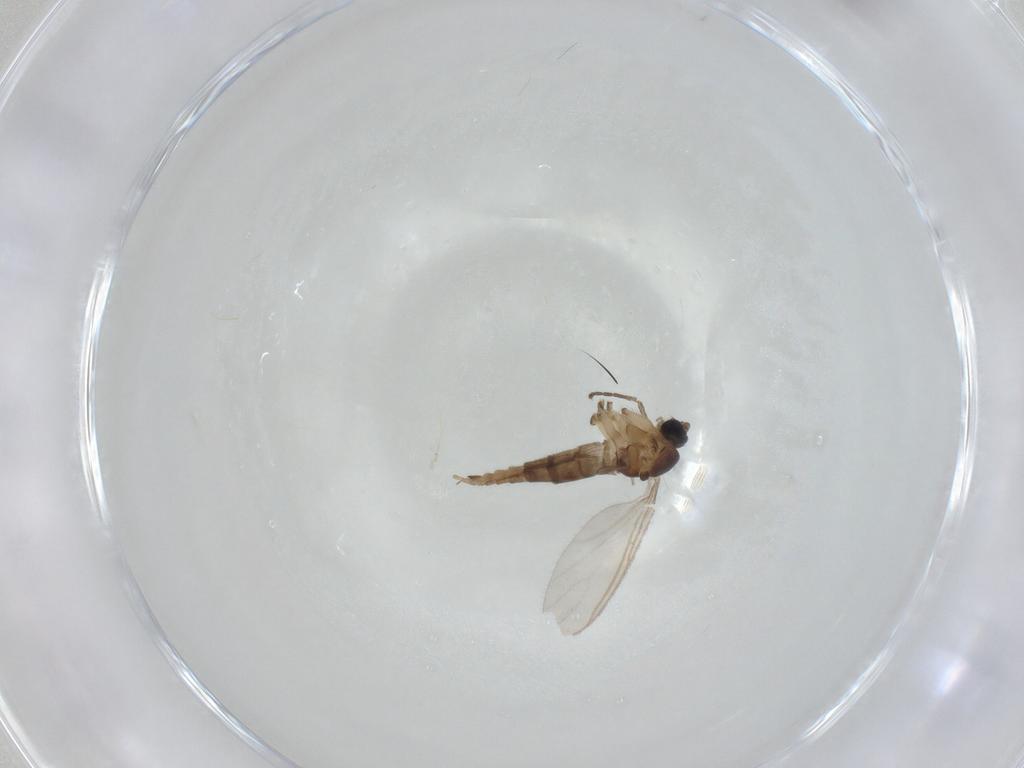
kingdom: Animalia
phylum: Arthropoda
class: Insecta
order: Diptera
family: Sciaridae
